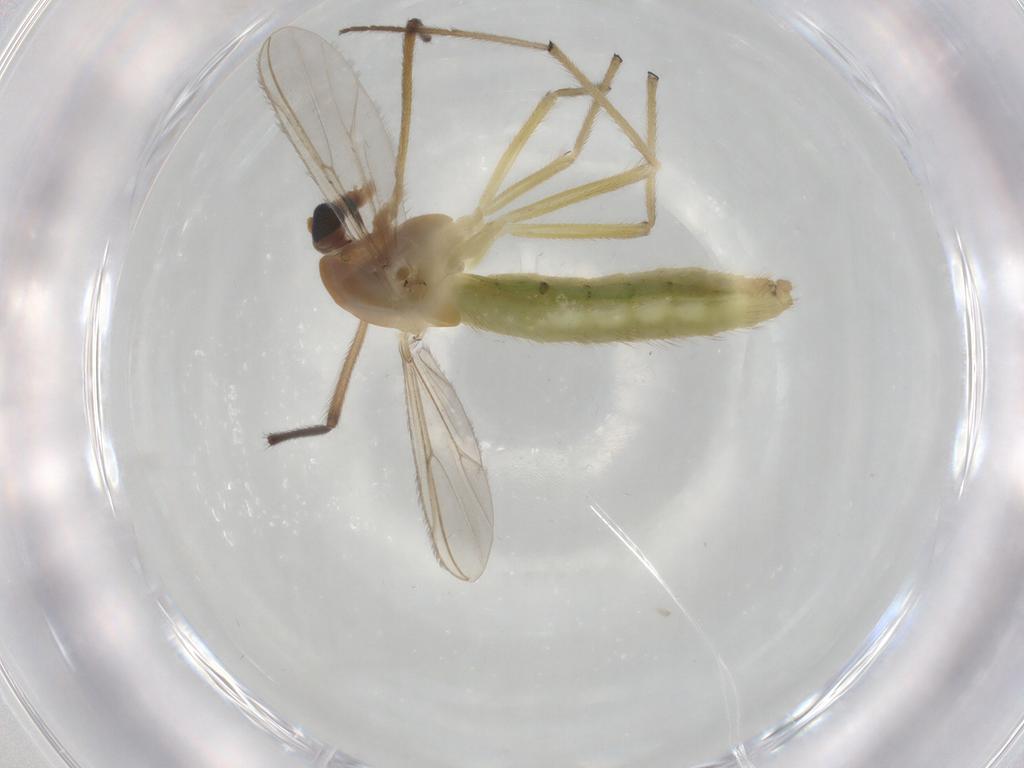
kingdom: Animalia
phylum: Arthropoda
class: Insecta
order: Diptera
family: Chironomidae
